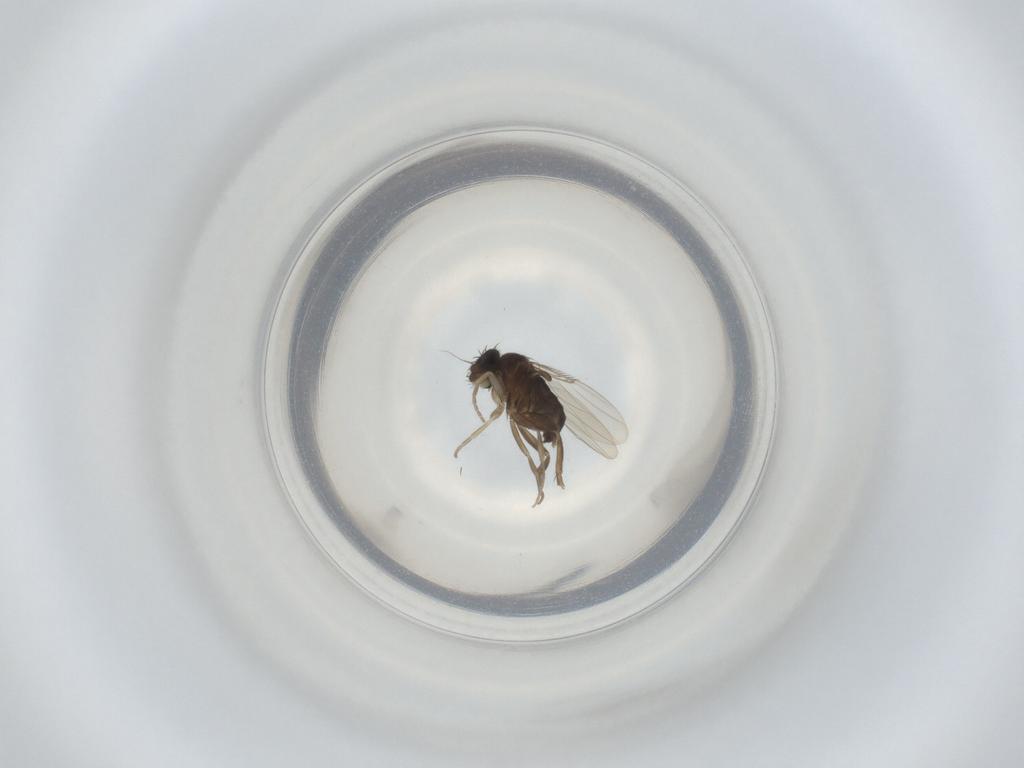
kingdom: Animalia
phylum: Arthropoda
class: Insecta
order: Diptera
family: Phoridae
